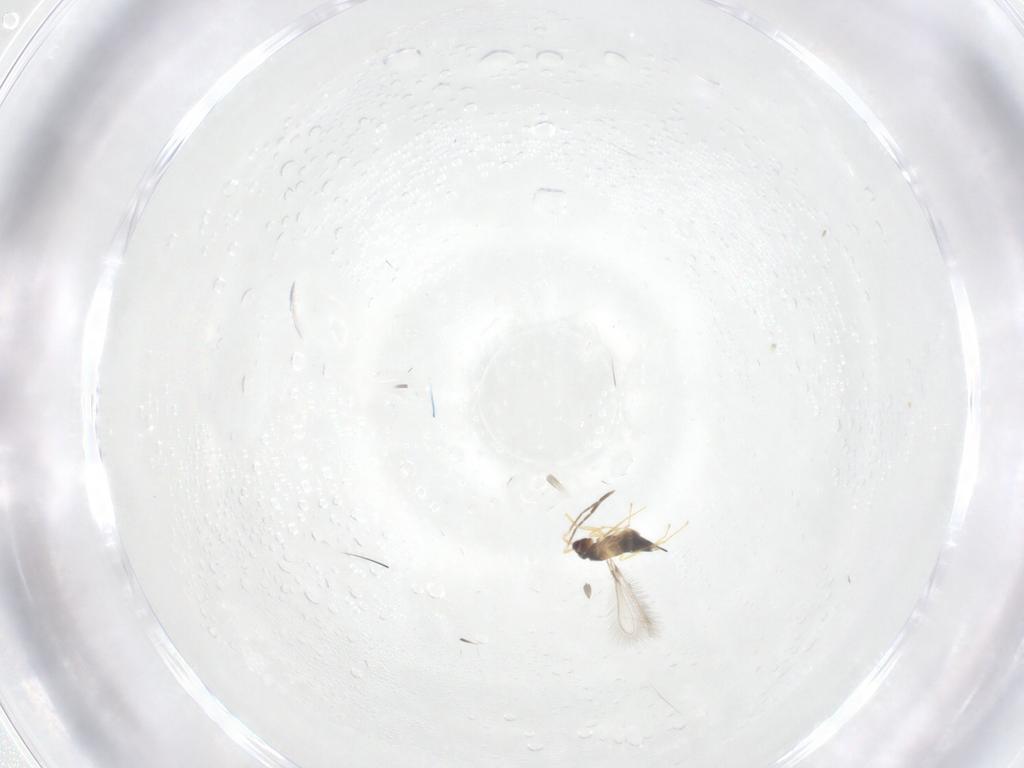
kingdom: Animalia
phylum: Arthropoda
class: Insecta
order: Hymenoptera
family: Mymaridae
